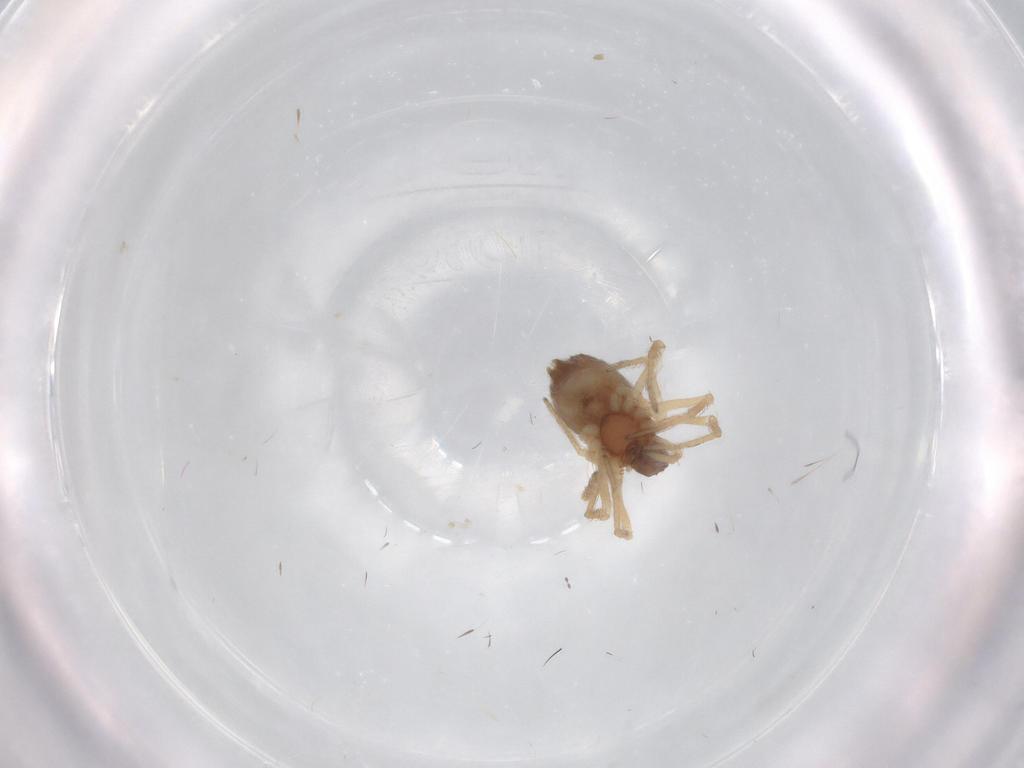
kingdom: Animalia
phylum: Arthropoda
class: Arachnida
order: Araneae
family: Dictynidae
